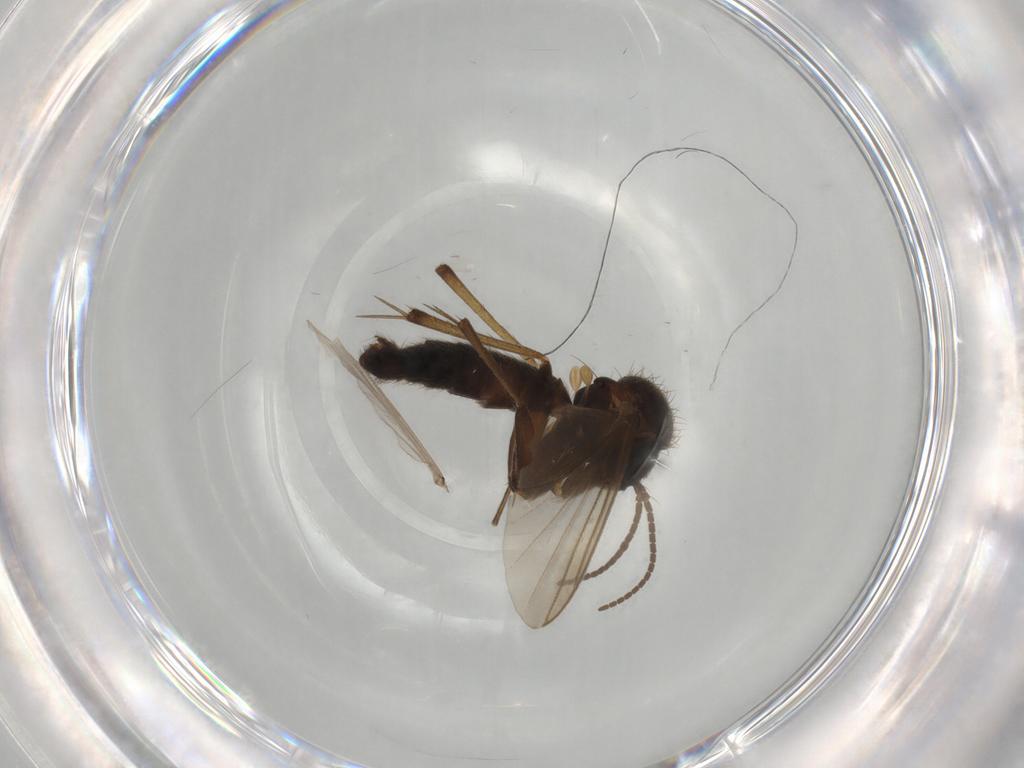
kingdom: Animalia
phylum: Arthropoda
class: Insecta
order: Diptera
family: Mycetophilidae
